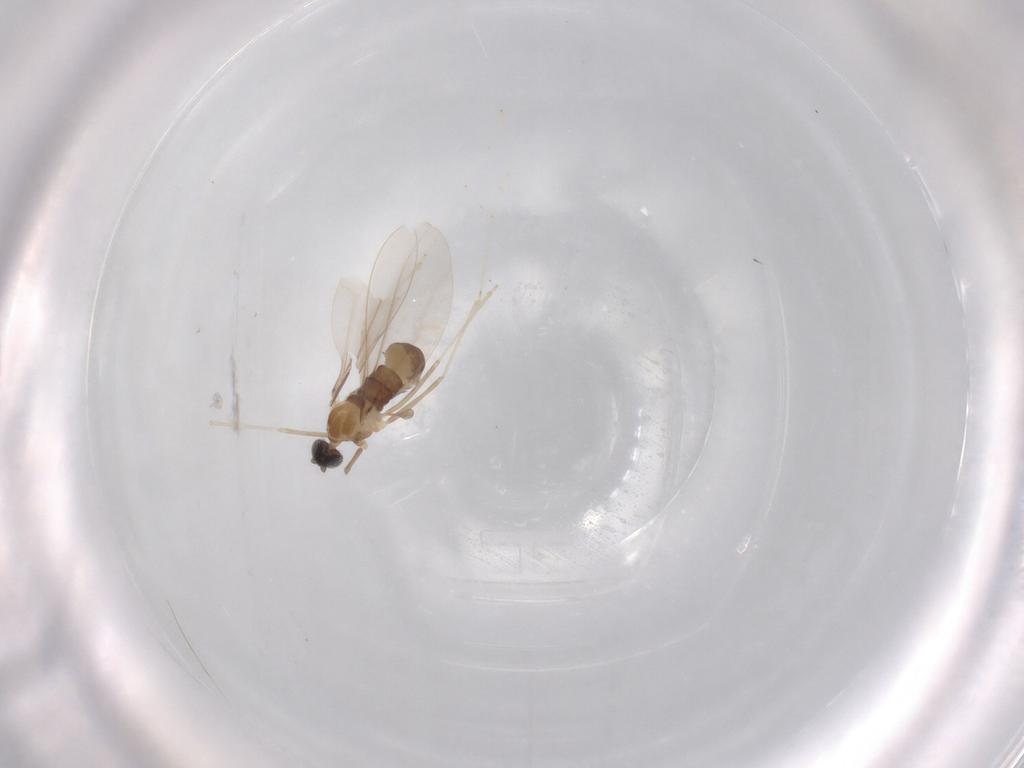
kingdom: Animalia
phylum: Arthropoda
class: Insecta
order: Diptera
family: Cecidomyiidae
